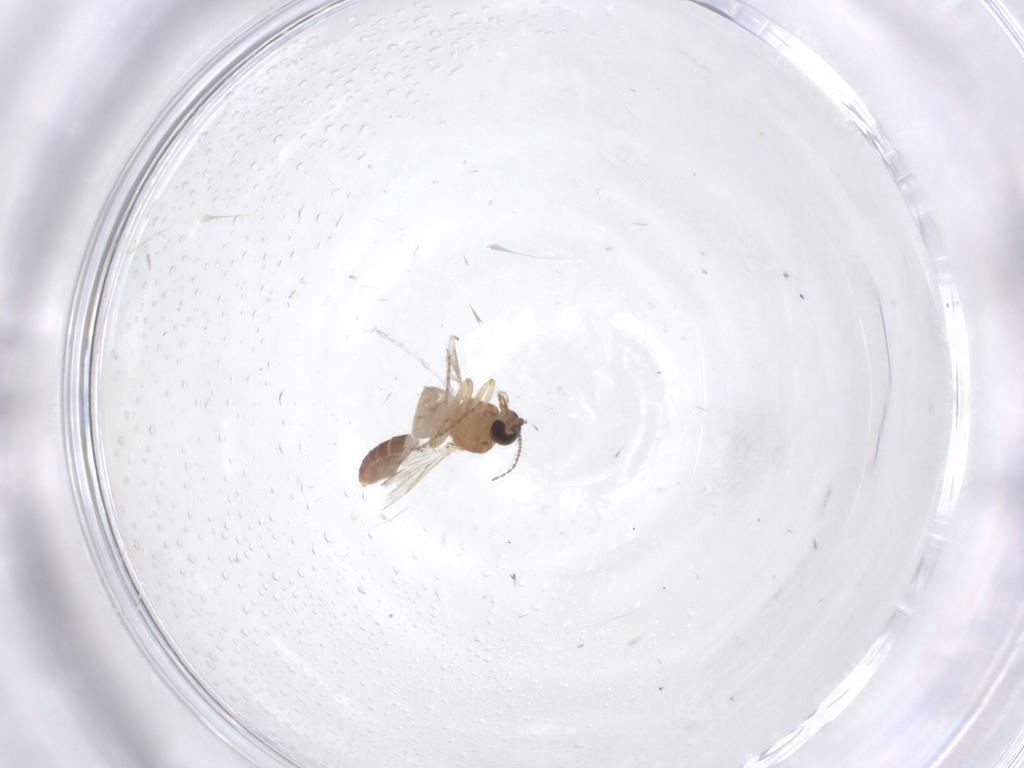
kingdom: Animalia
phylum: Arthropoda
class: Insecta
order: Diptera
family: Ceratopogonidae
